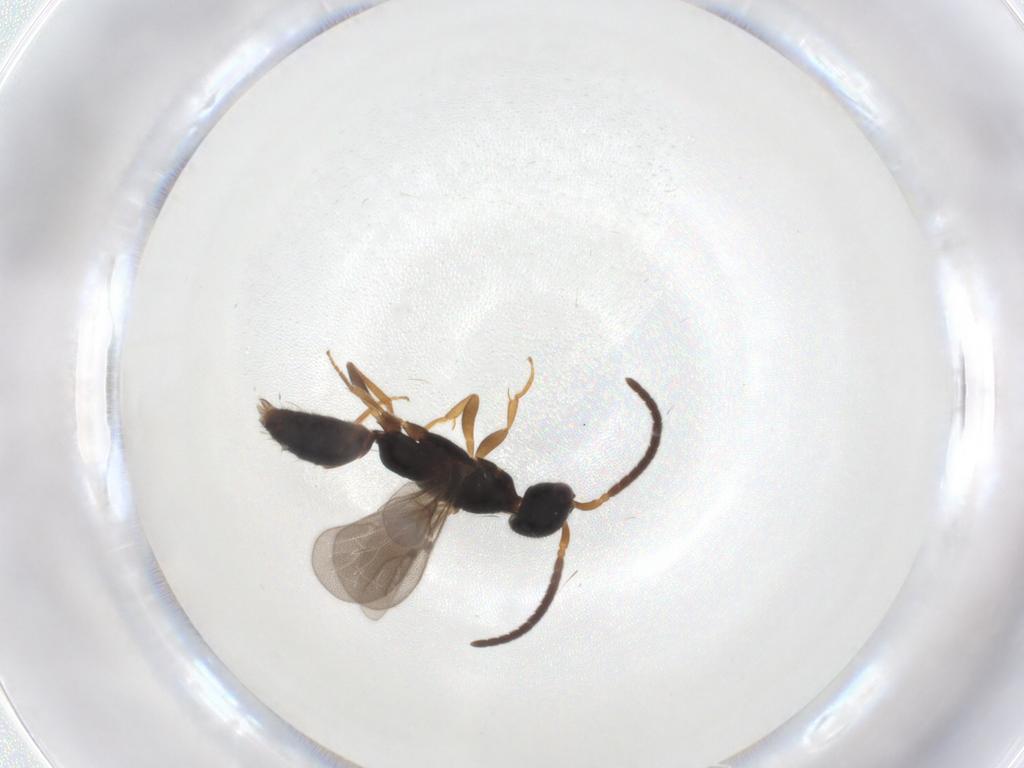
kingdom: Animalia
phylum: Arthropoda
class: Insecta
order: Hymenoptera
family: Bethylidae
